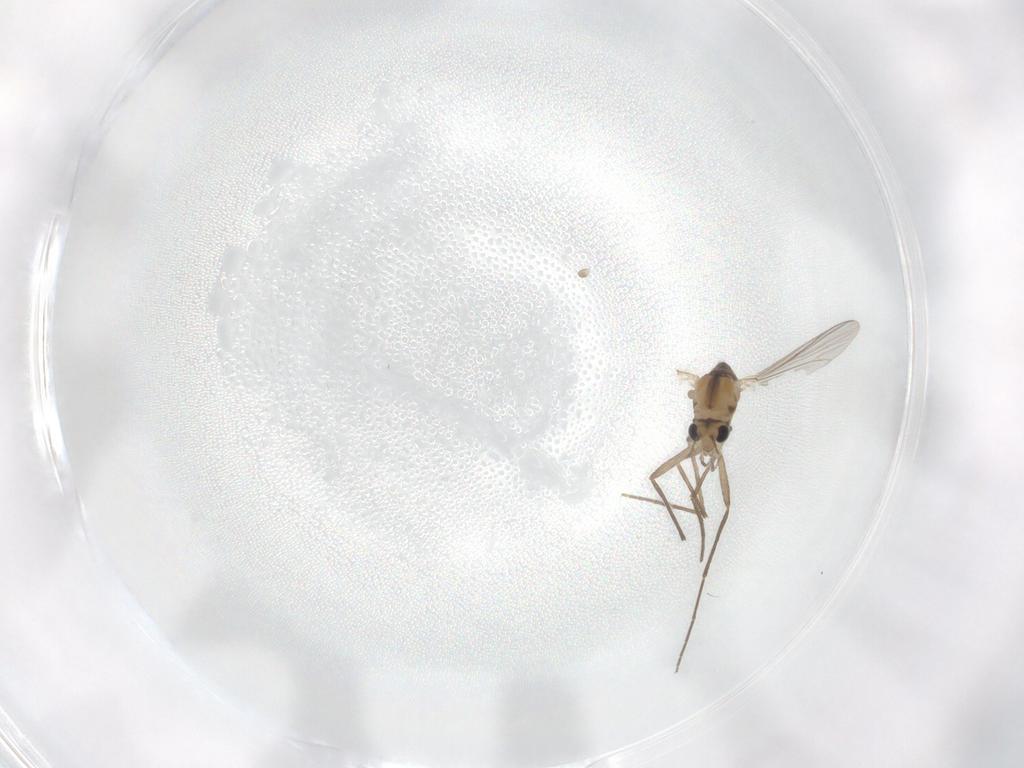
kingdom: Animalia
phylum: Arthropoda
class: Insecta
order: Diptera
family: Chironomidae
